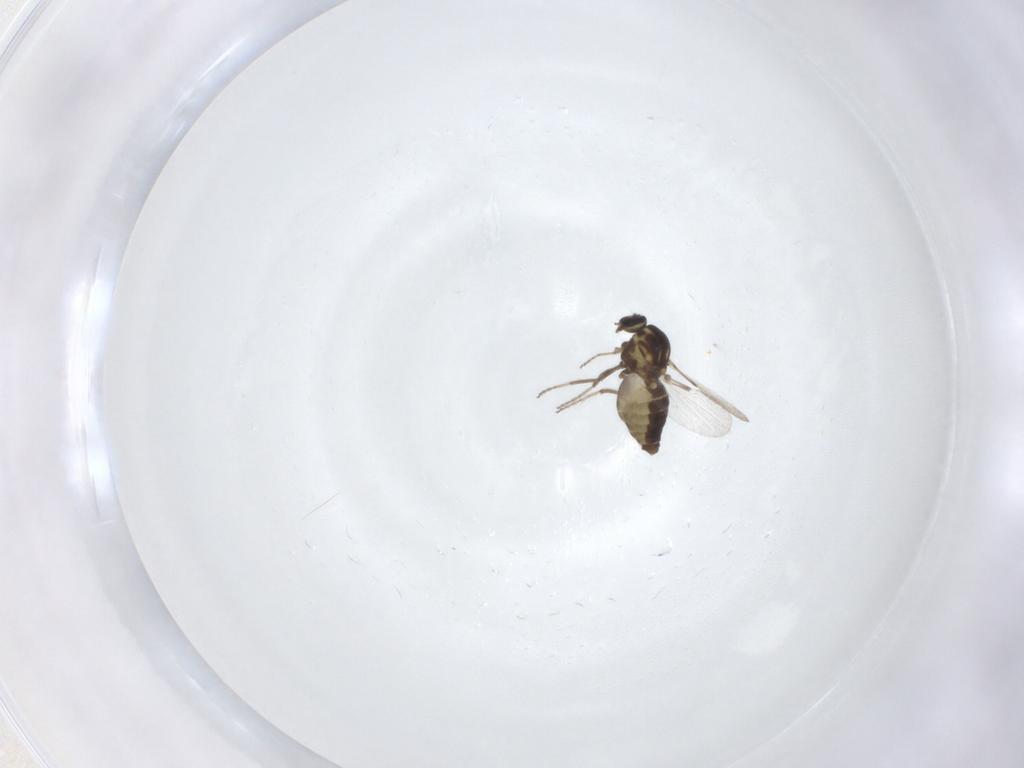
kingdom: Animalia
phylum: Arthropoda
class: Insecta
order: Diptera
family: Ceratopogonidae
